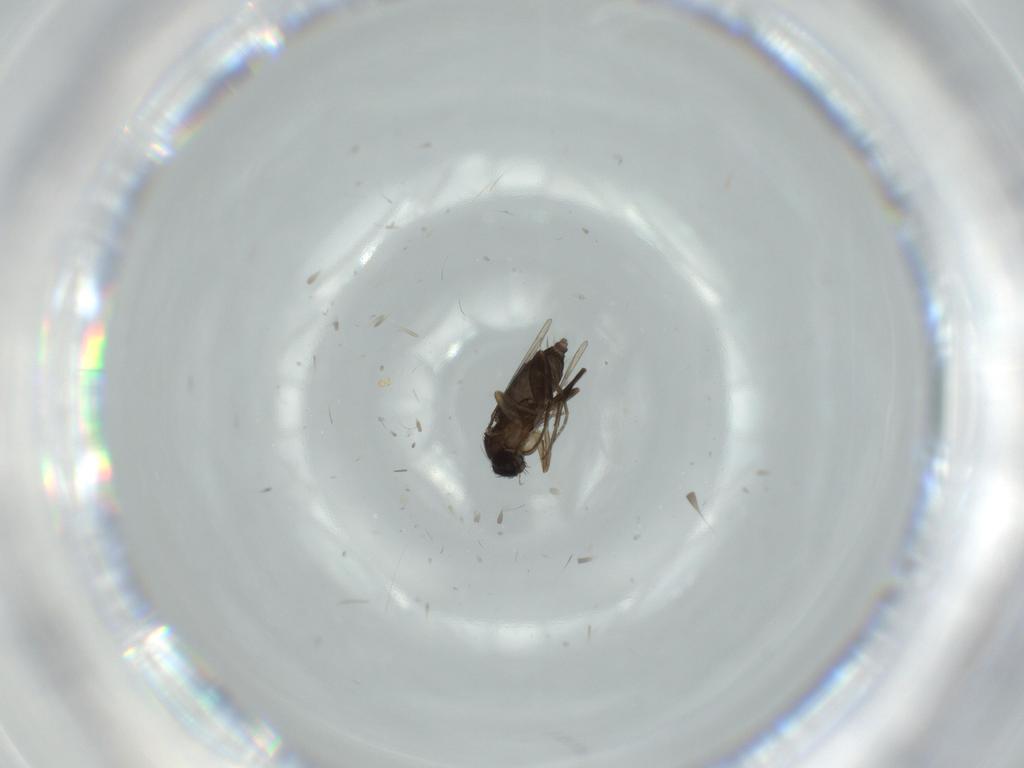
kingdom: Animalia
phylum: Arthropoda
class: Insecta
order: Diptera
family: Phoridae
